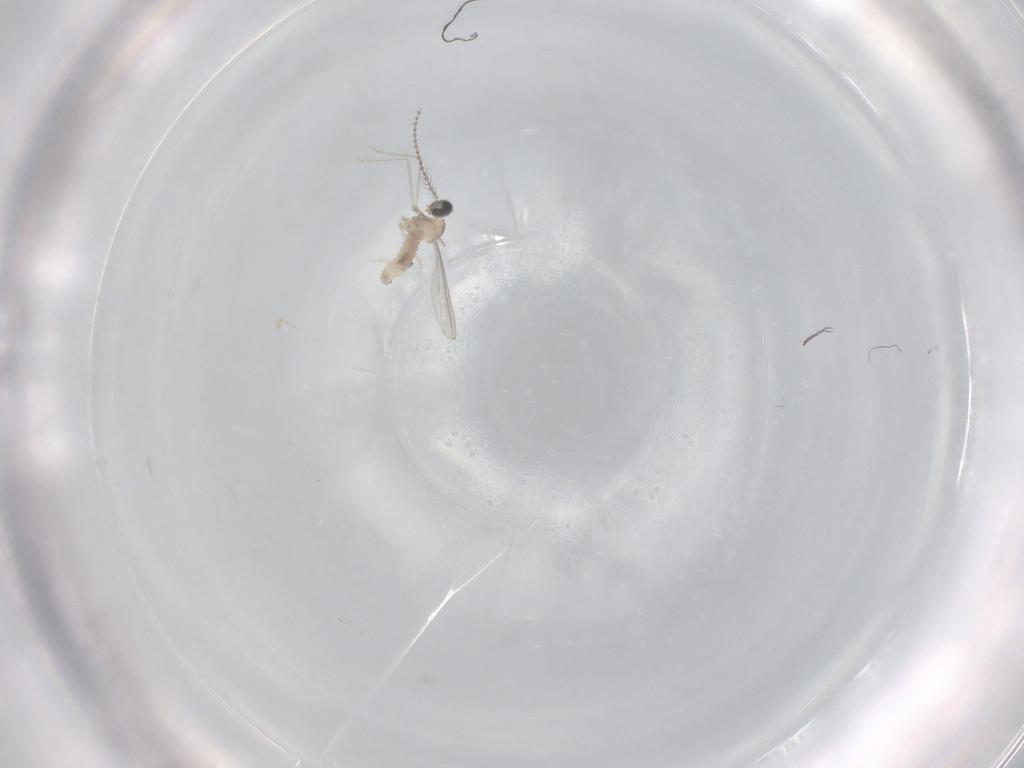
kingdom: Animalia
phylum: Arthropoda
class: Insecta
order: Diptera
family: Cecidomyiidae
